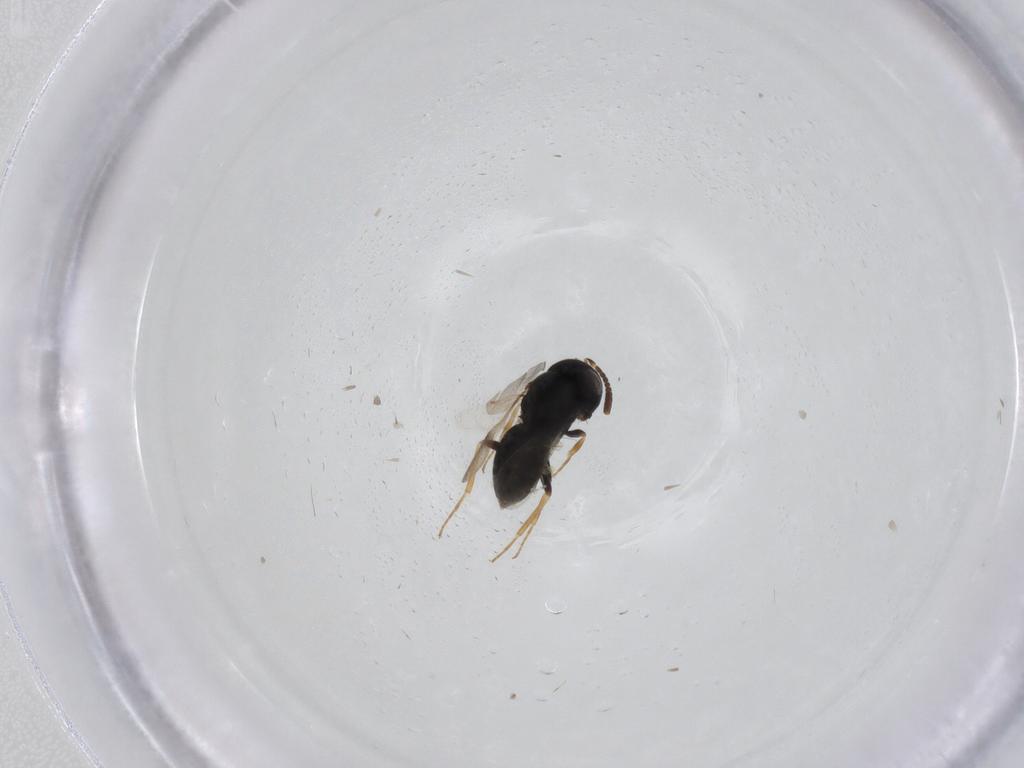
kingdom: Animalia
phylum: Arthropoda
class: Insecta
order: Hymenoptera
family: Scelionidae
